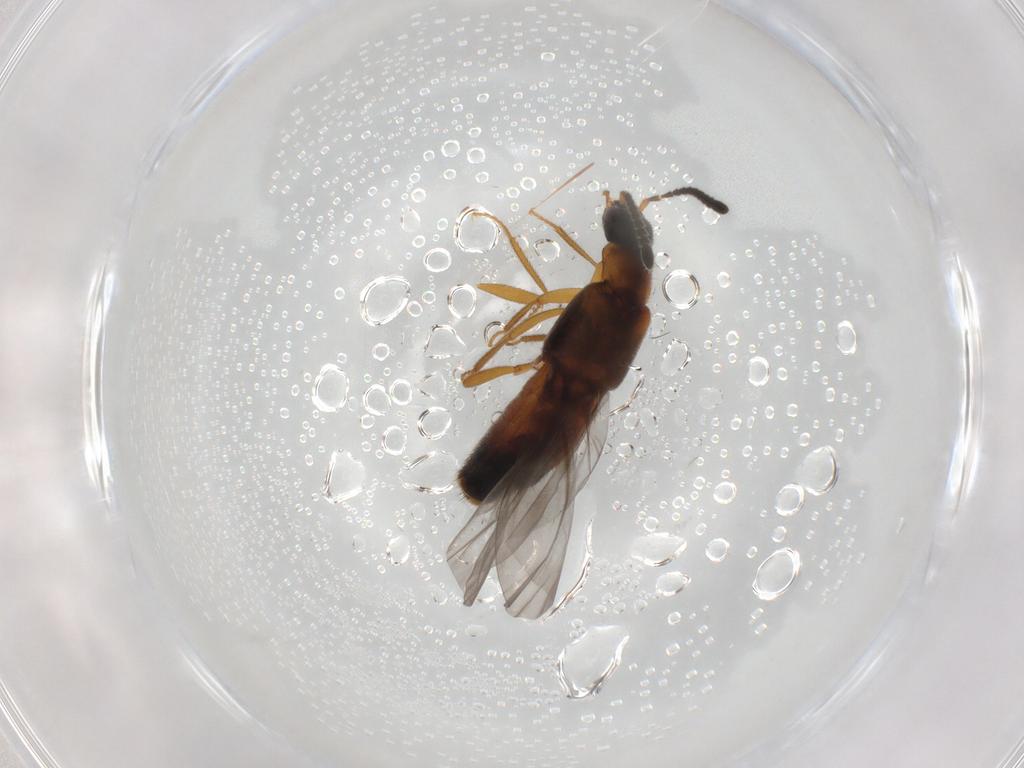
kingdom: Animalia
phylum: Arthropoda
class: Insecta
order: Coleoptera
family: Staphylinidae
